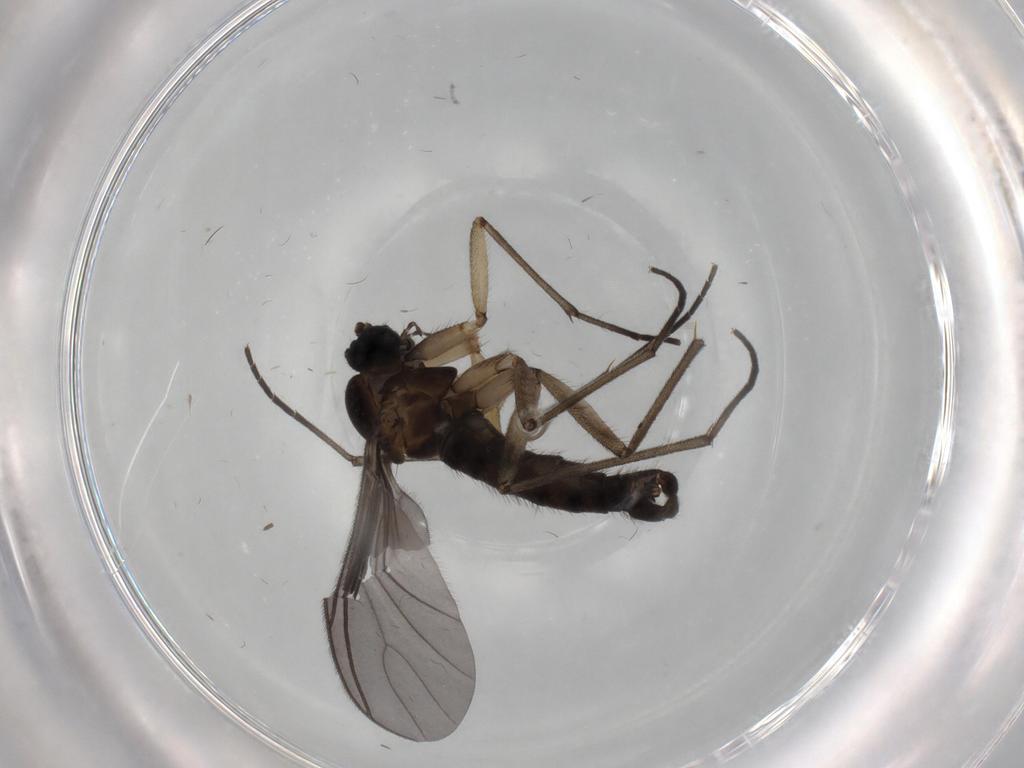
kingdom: Animalia
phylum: Arthropoda
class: Insecta
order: Diptera
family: Sciaridae
